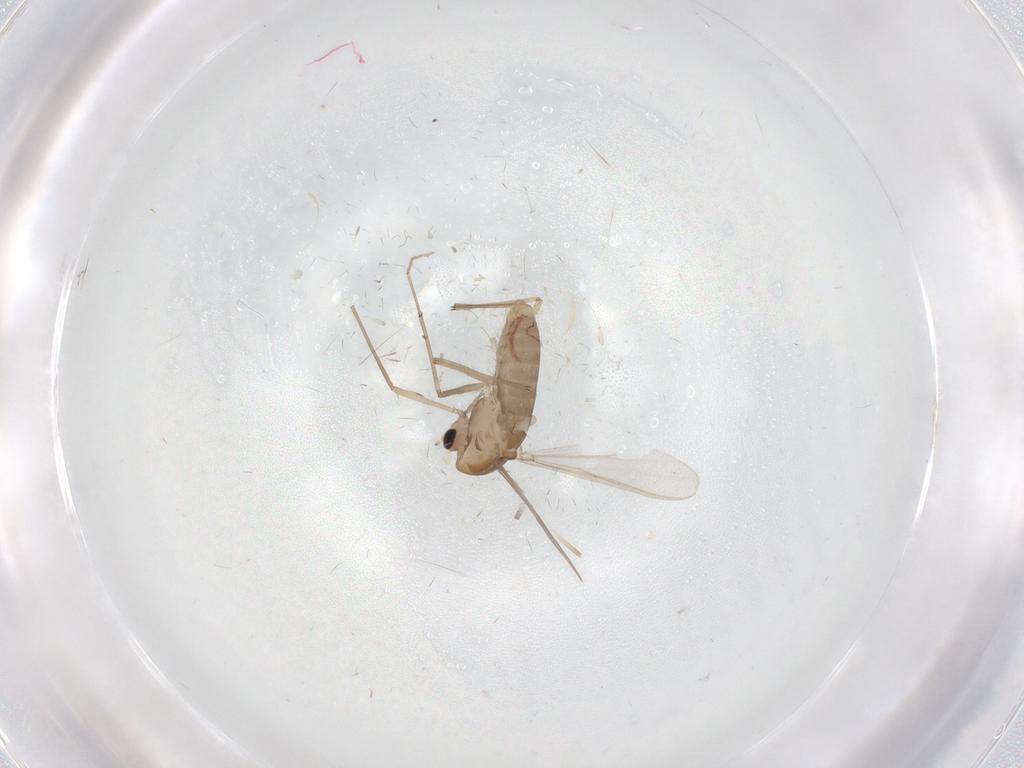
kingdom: Animalia
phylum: Arthropoda
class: Insecta
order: Diptera
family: Chironomidae
